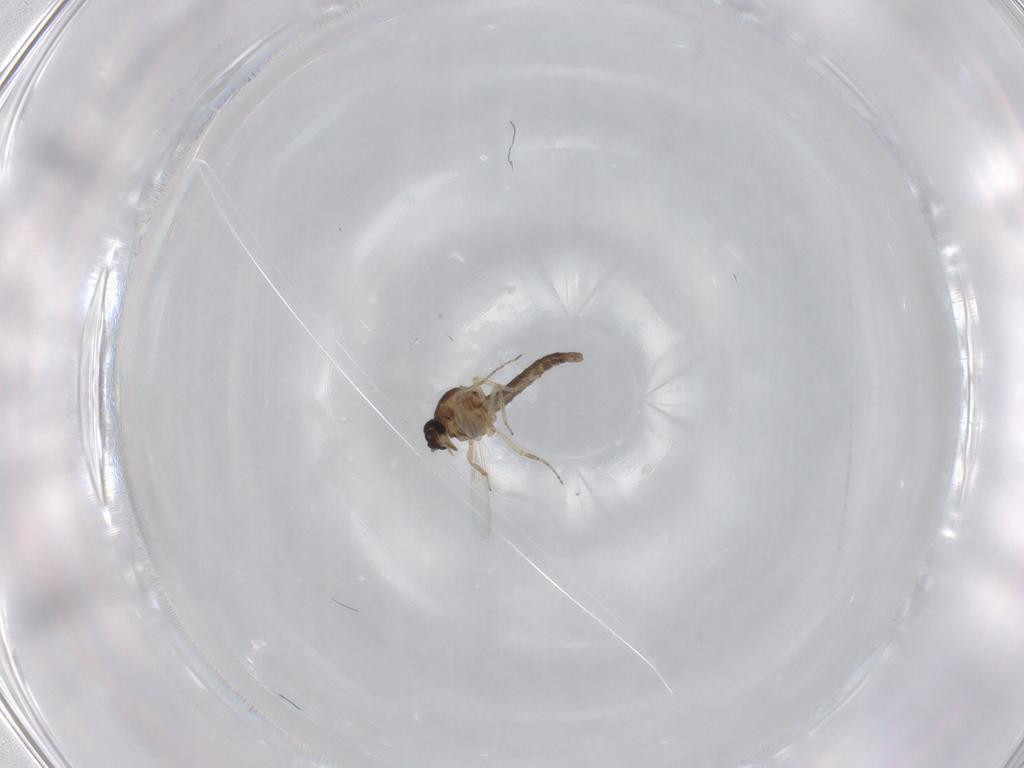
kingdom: Animalia
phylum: Arthropoda
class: Insecta
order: Diptera
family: Ceratopogonidae
